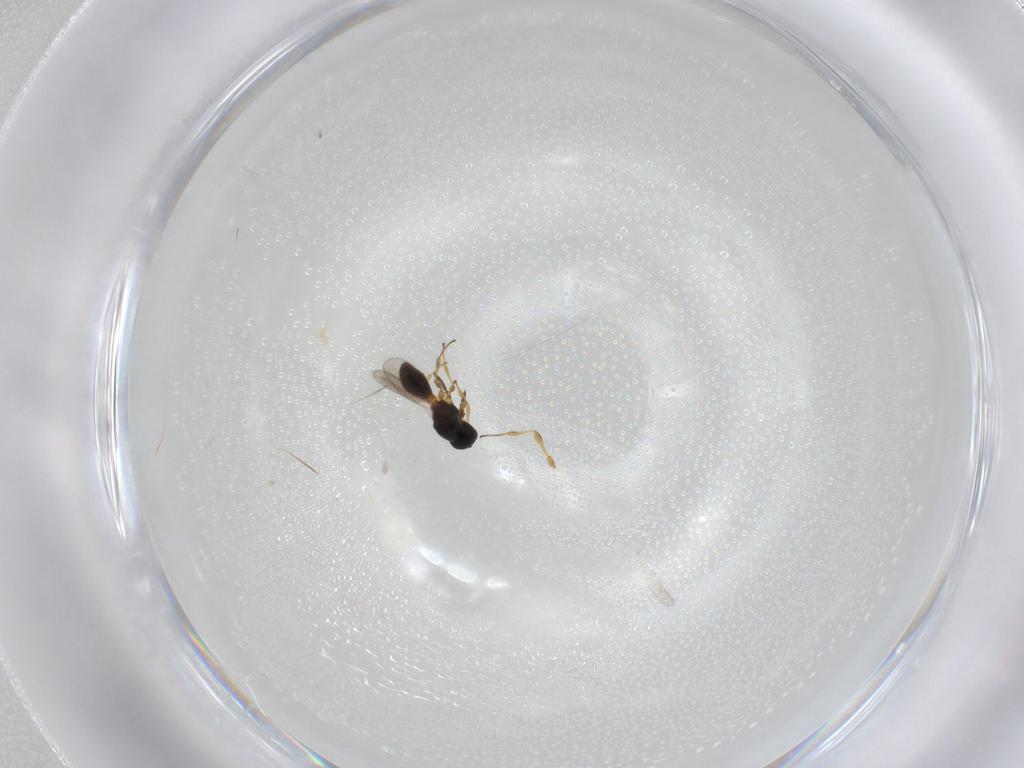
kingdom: Animalia
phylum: Arthropoda
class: Insecta
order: Hymenoptera
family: Platygastridae
